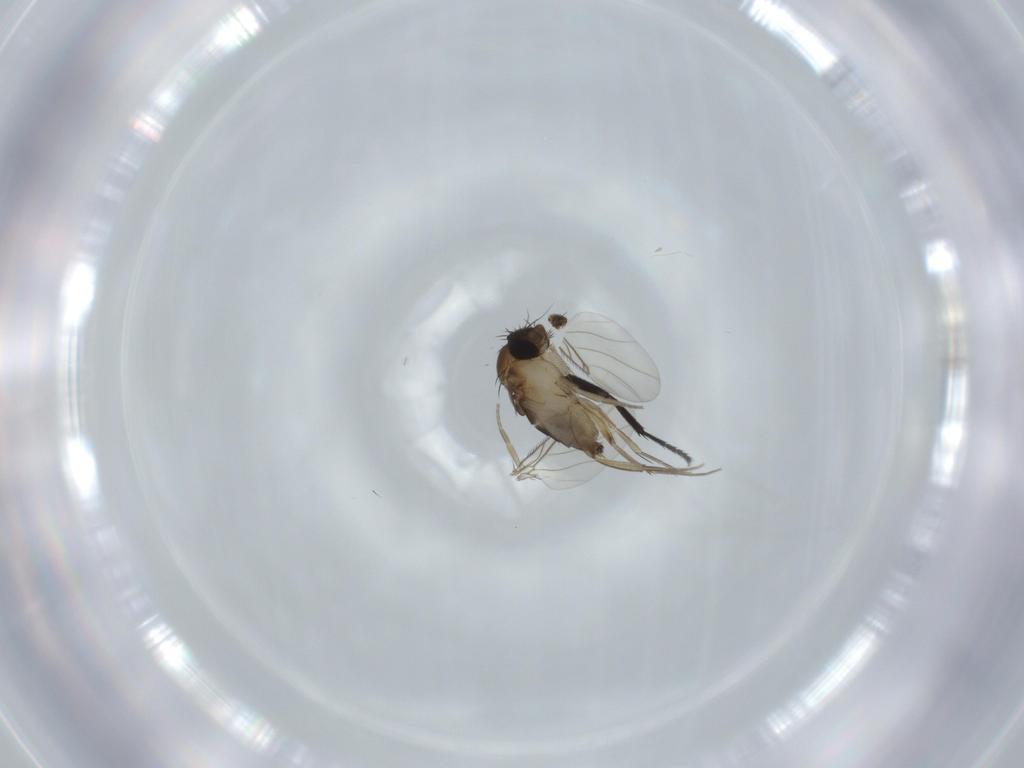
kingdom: Animalia
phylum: Arthropoda
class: Insecta
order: Diptera
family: Phoridae
